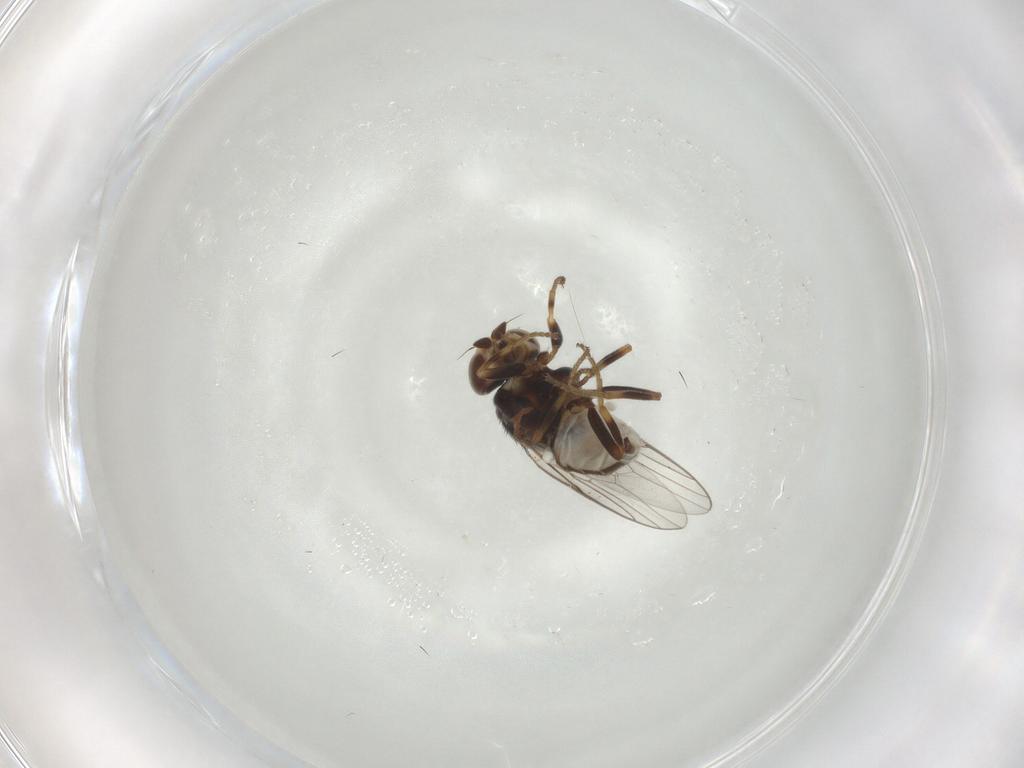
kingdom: Animalia
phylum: Arthropoda
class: Insecta
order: Diptera
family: Chloropidae
